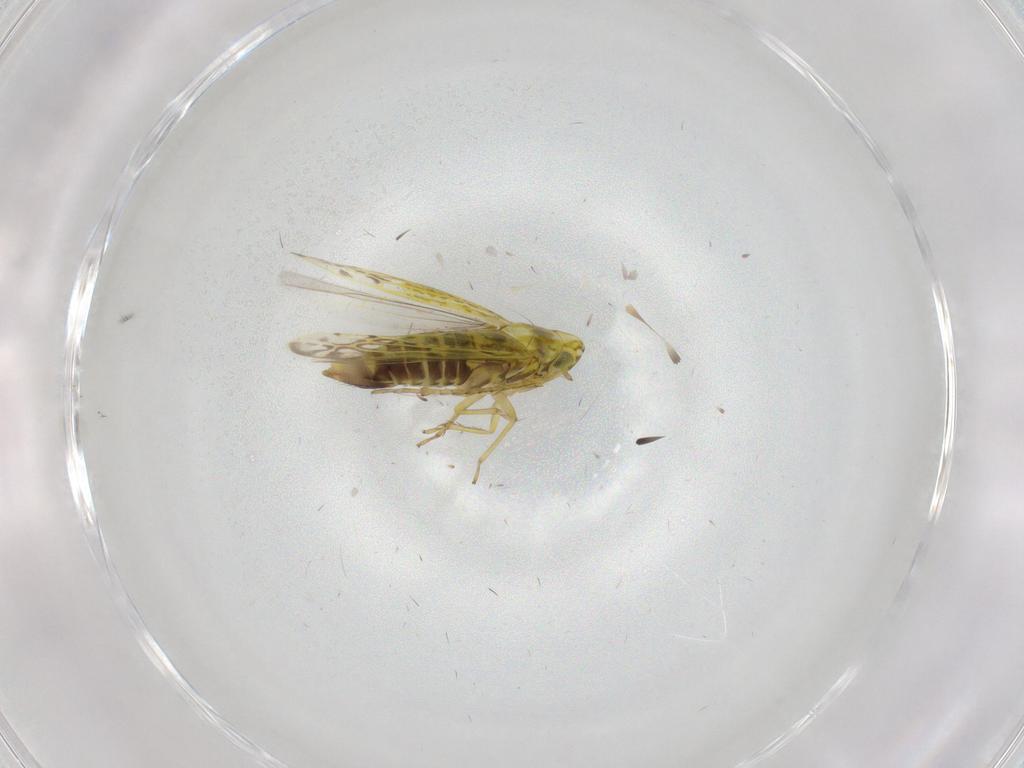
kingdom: Animalia
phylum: Arthropoda
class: Insecta
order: Hemiptera
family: Cicadellidae
